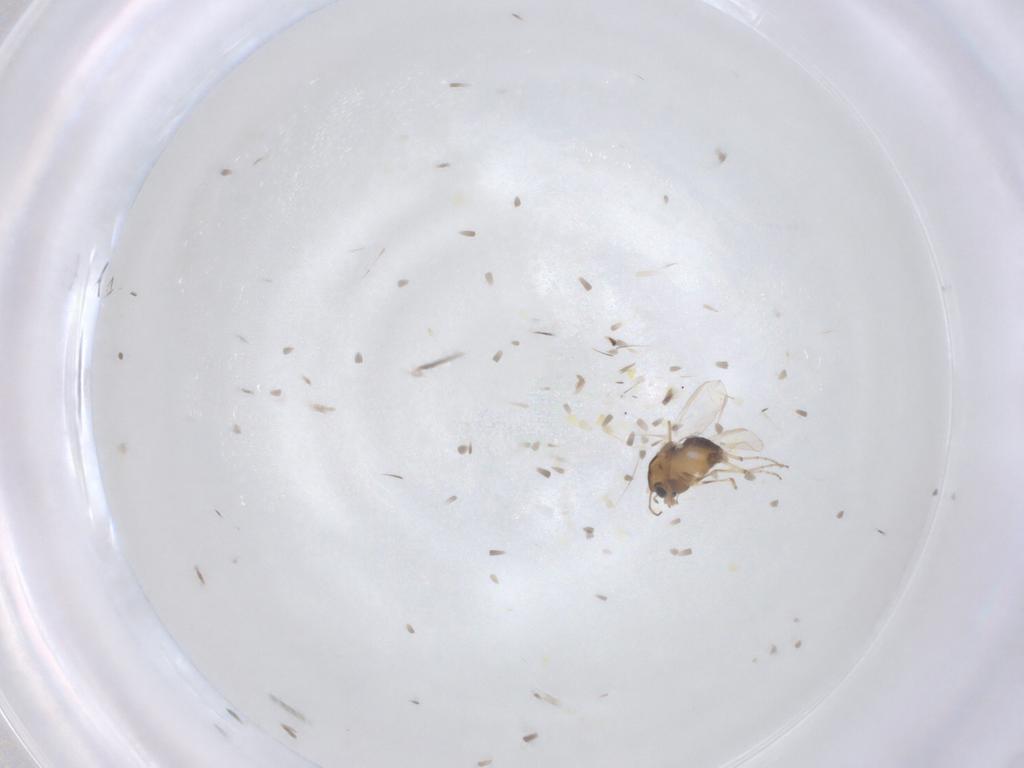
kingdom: Animalia
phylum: Arthropoda
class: Insecta
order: Diptera
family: Chironomidae
